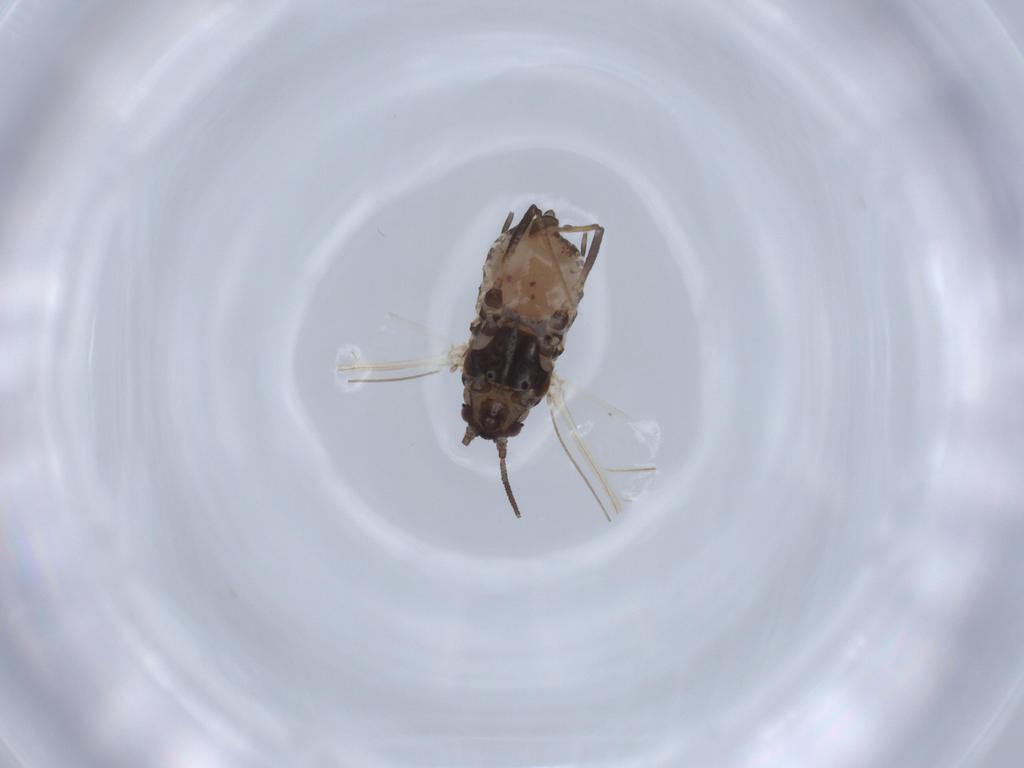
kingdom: Animalia
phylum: Arthropoda
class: Insecta
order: Hemiptera
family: Aphididae
